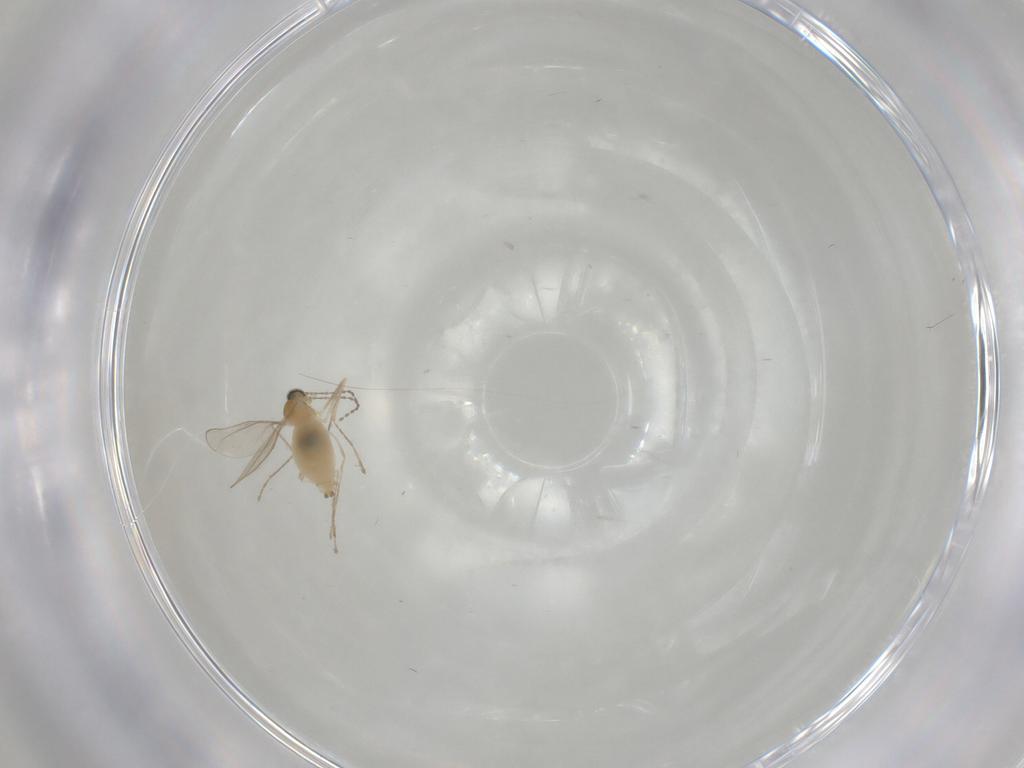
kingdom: Animalia
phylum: Arthropoda
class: Insecta
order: Diptera
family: Cecidomyiidae
